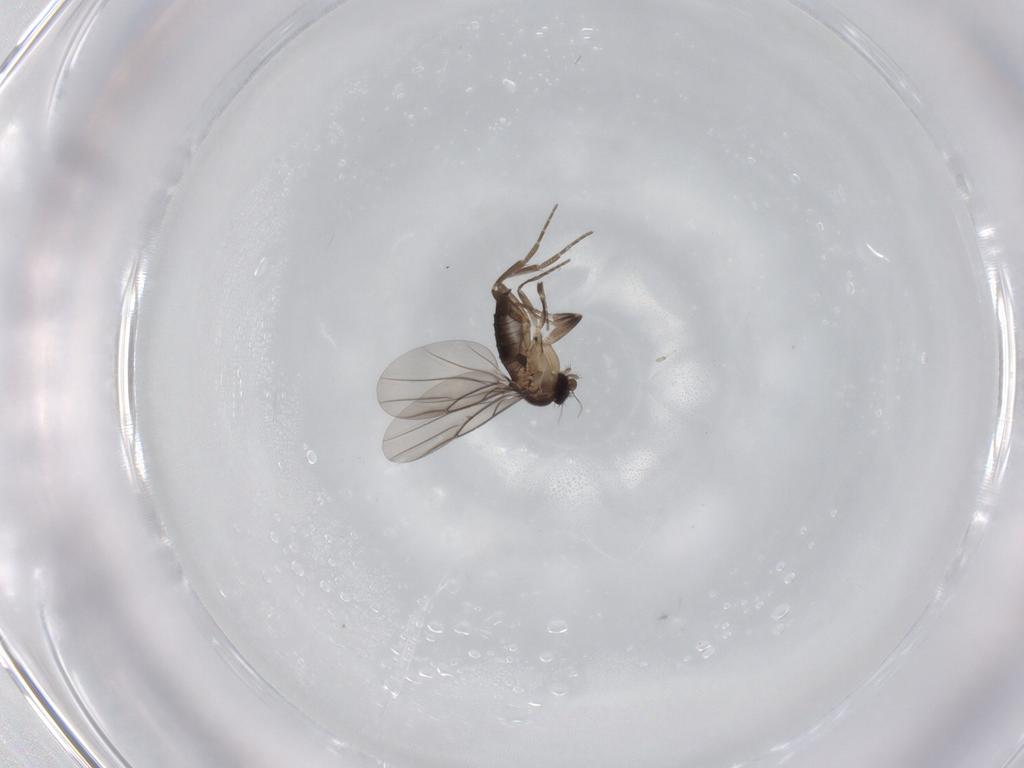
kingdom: Animalia
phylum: Arthropoda
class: Insecta
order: Diptera
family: Phoridae
